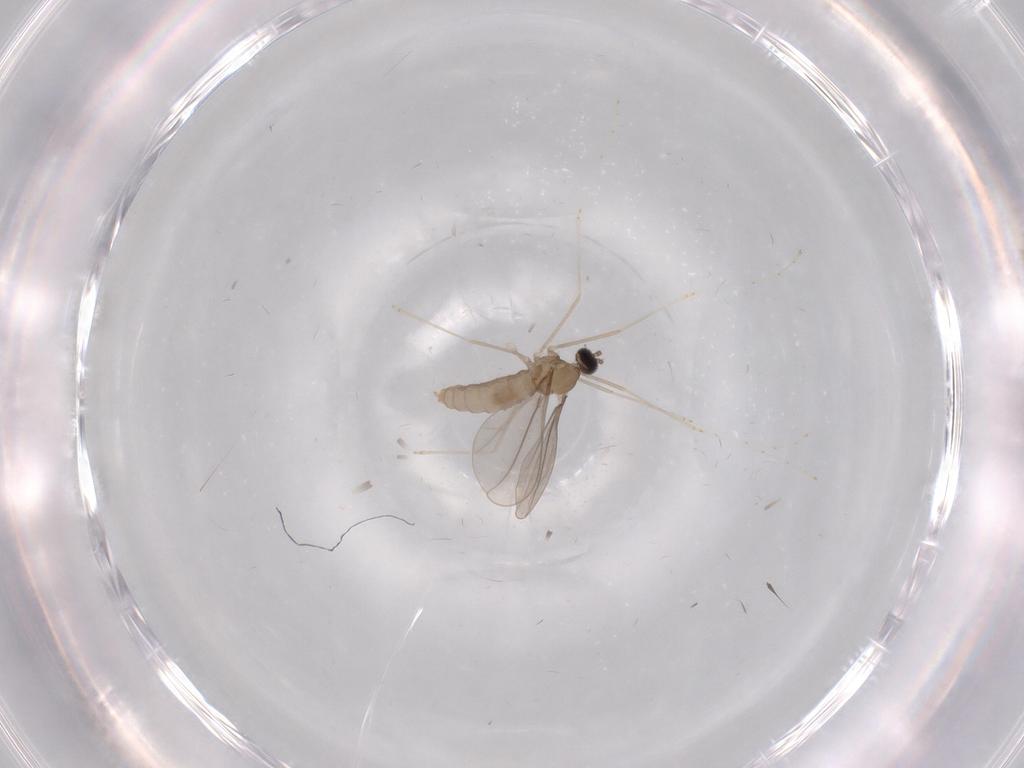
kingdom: Animalia
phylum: Arthropoda
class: Insecta
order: Diptera
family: Cecidomyiidae
